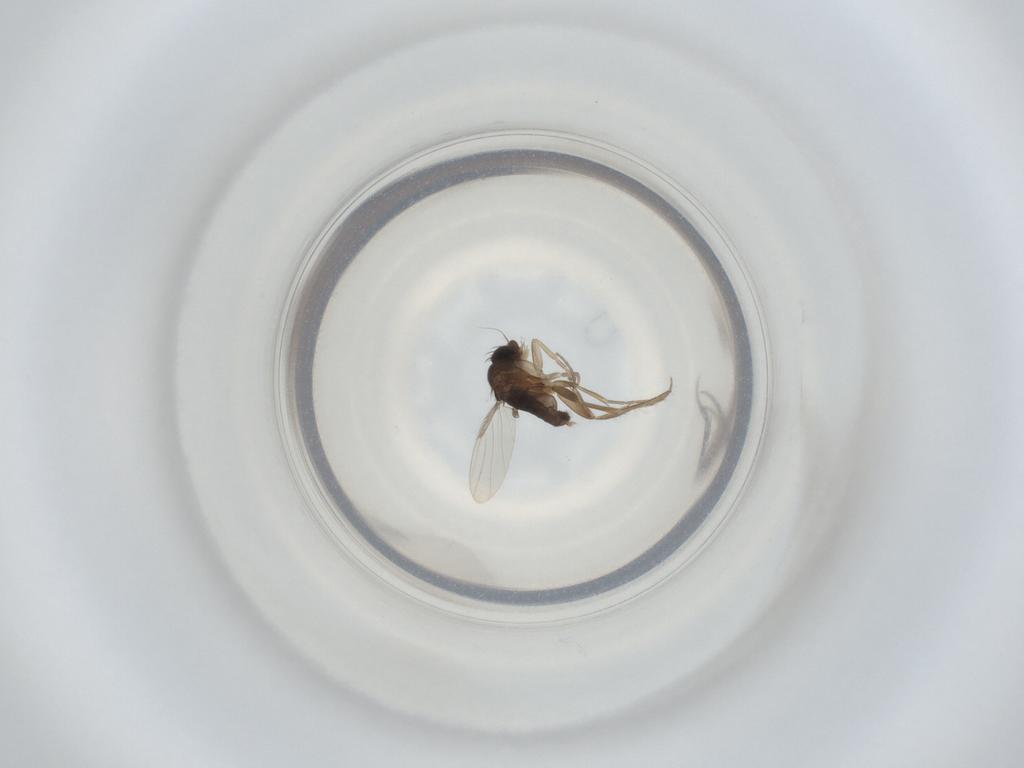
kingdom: Animalia
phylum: Arthropoda
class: Insecta
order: Diptera
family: Phoridae
